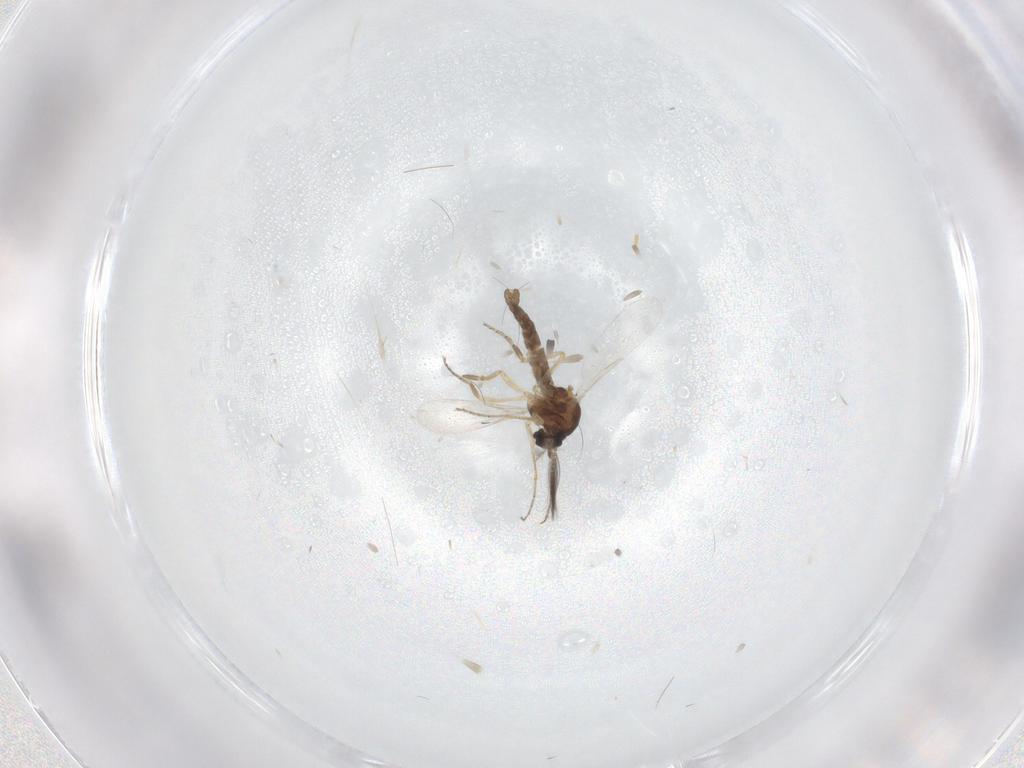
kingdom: Animalia
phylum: Arthropoda
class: Insecta
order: Diptera
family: Ceratopogonidae
